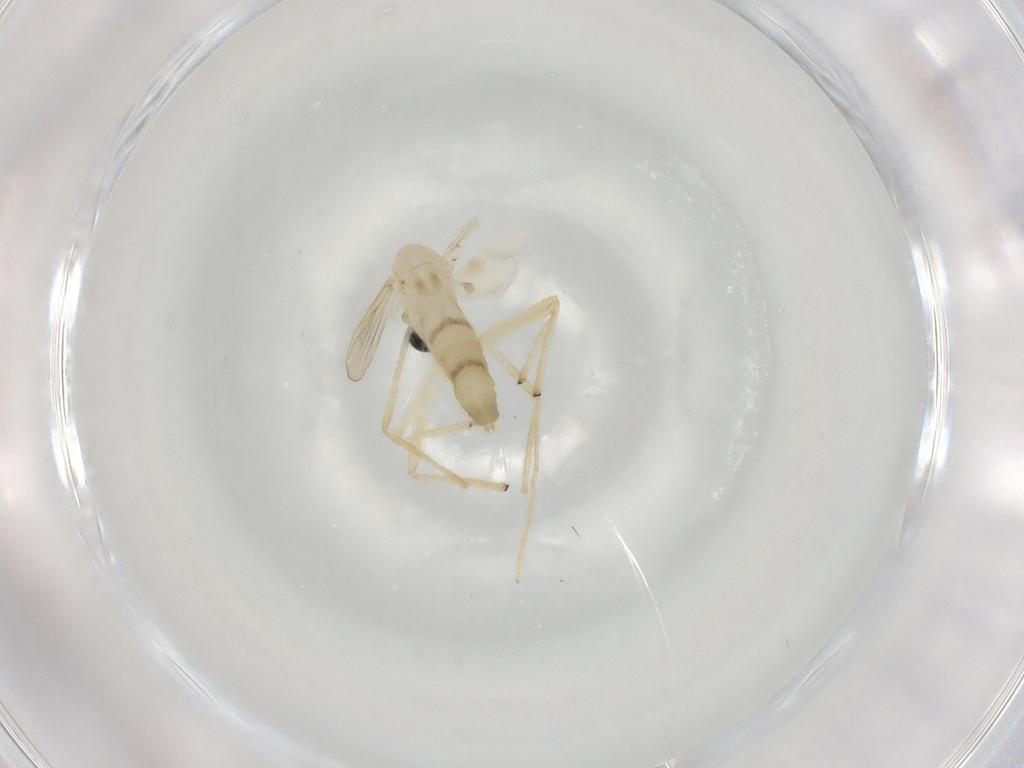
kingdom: Animalia
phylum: Arthropoda
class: Insecta
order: Diptera
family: Chironomidae
